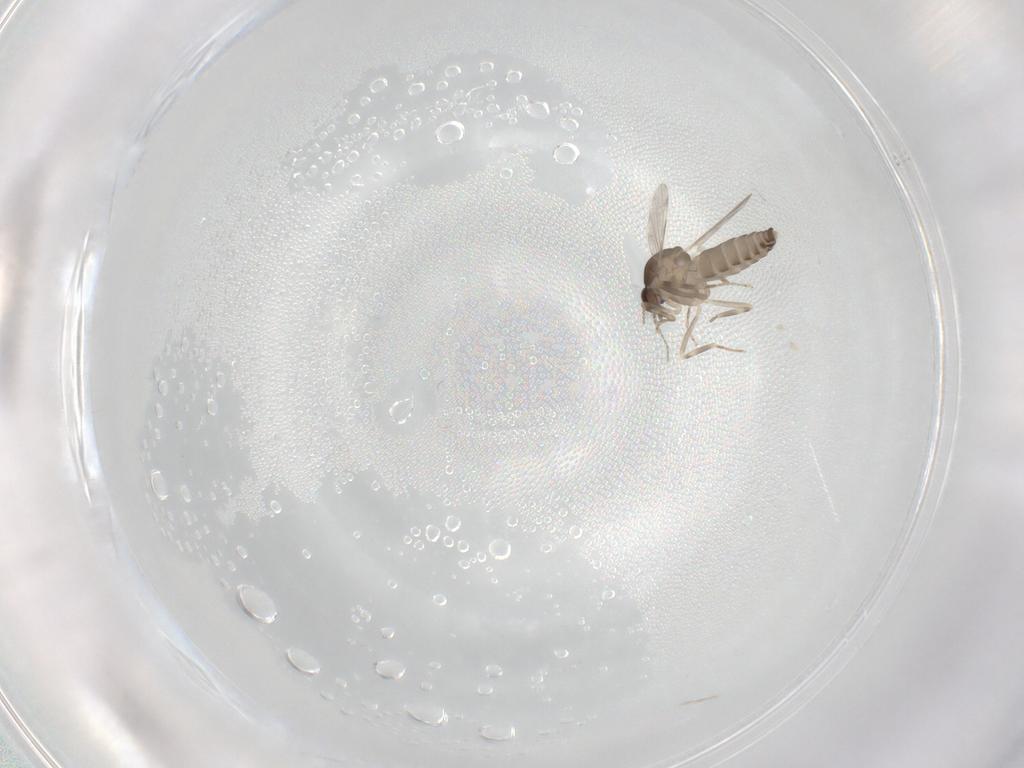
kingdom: Animalia
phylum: Arthropoda
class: Insecta
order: Diptera
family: Ceratopogonidae
